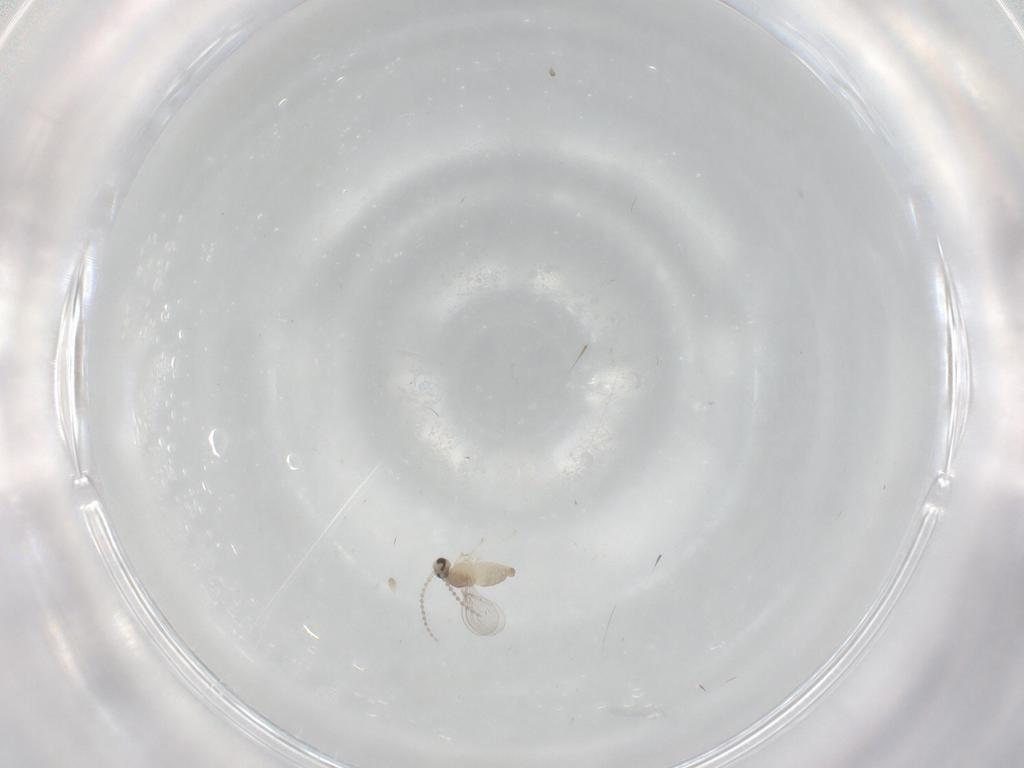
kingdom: Animalia
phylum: Arthropoda
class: Insecta
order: Diptera
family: Cecidomyiidae
